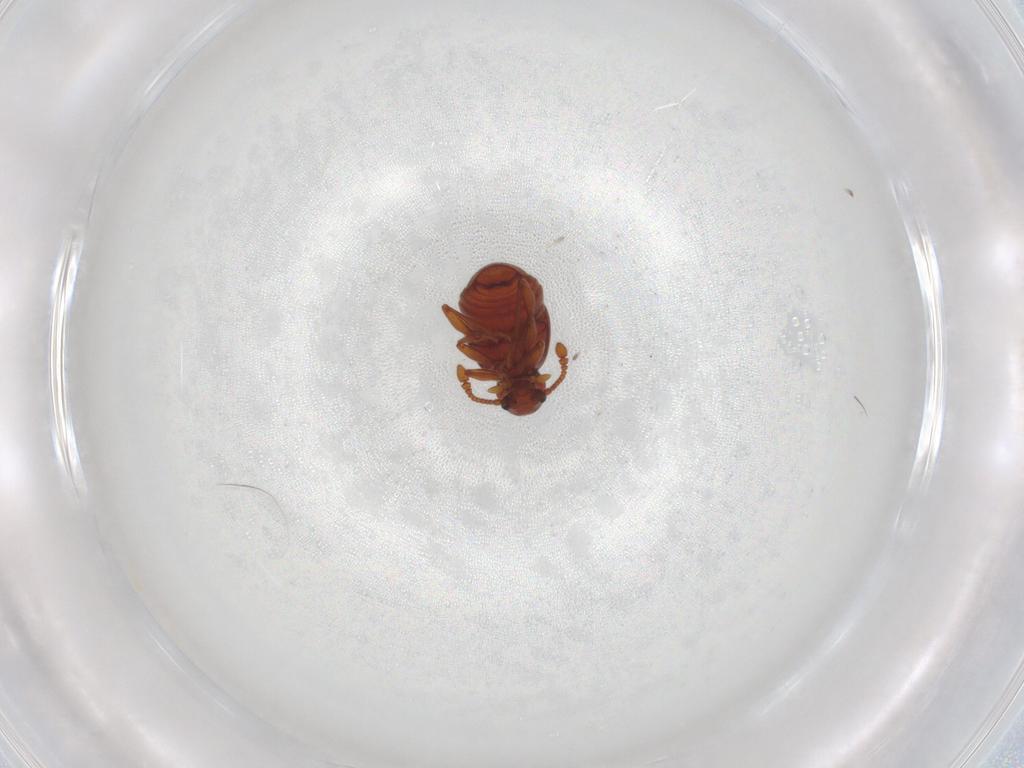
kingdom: Animalia
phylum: Arthropoda
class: Insecta
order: Coleoptera
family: Staphylinidae
